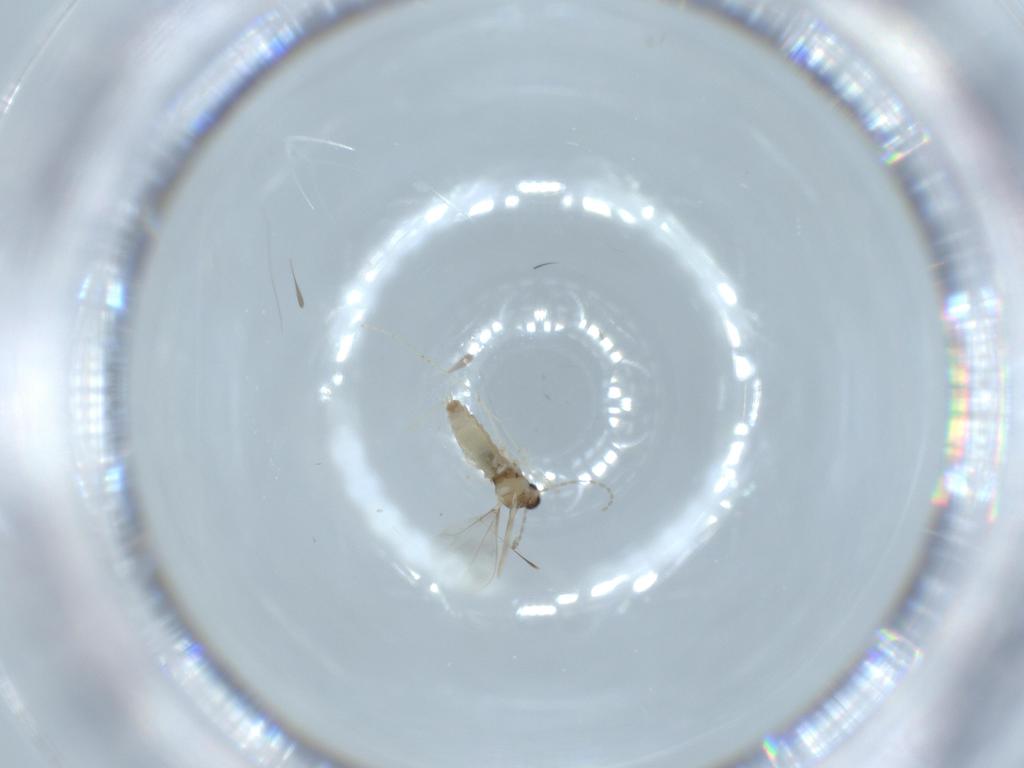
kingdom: Animalia
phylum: Arthropoda
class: Insecta
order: Diptera
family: Cecidomyiidae
